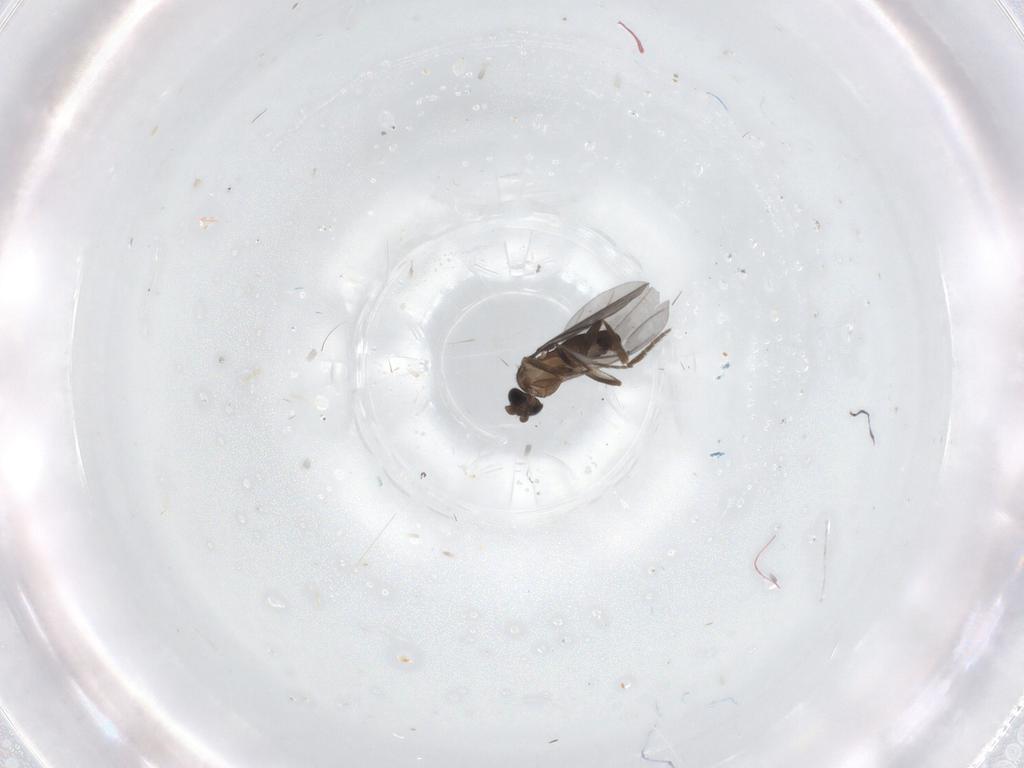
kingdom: Animalia
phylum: Arthropoda
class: Insecta
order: Diptera
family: Phoridae
